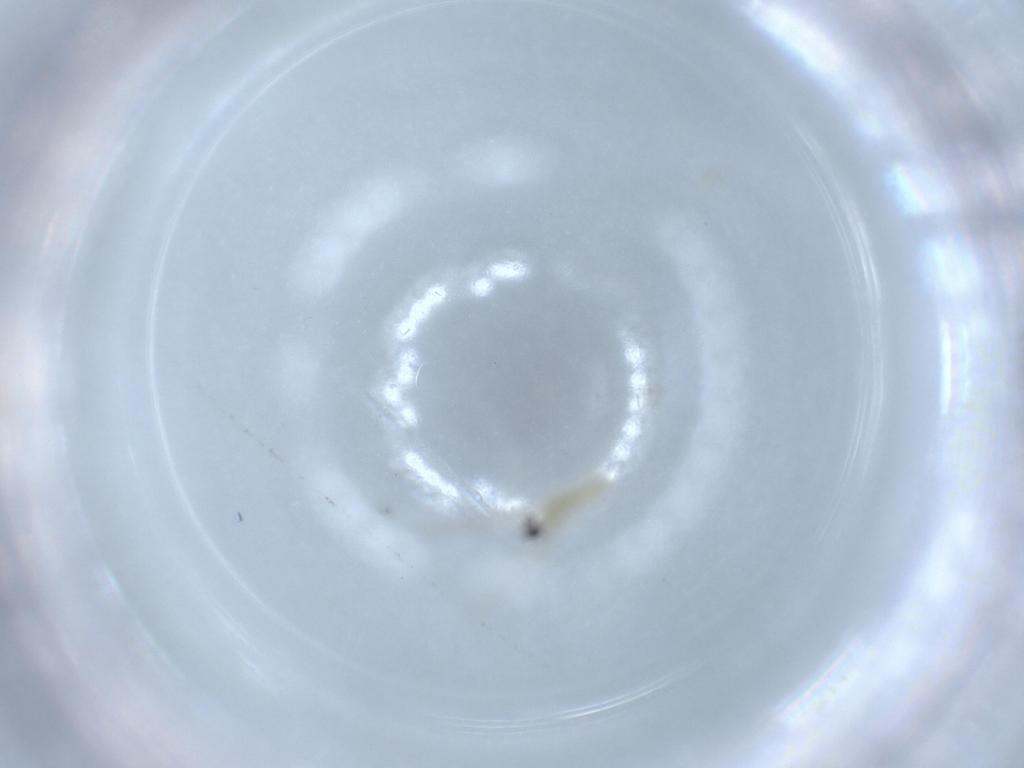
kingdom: Animalia
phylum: Arthropoda
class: Insecta
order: Diptera
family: Cecidomyiidae
